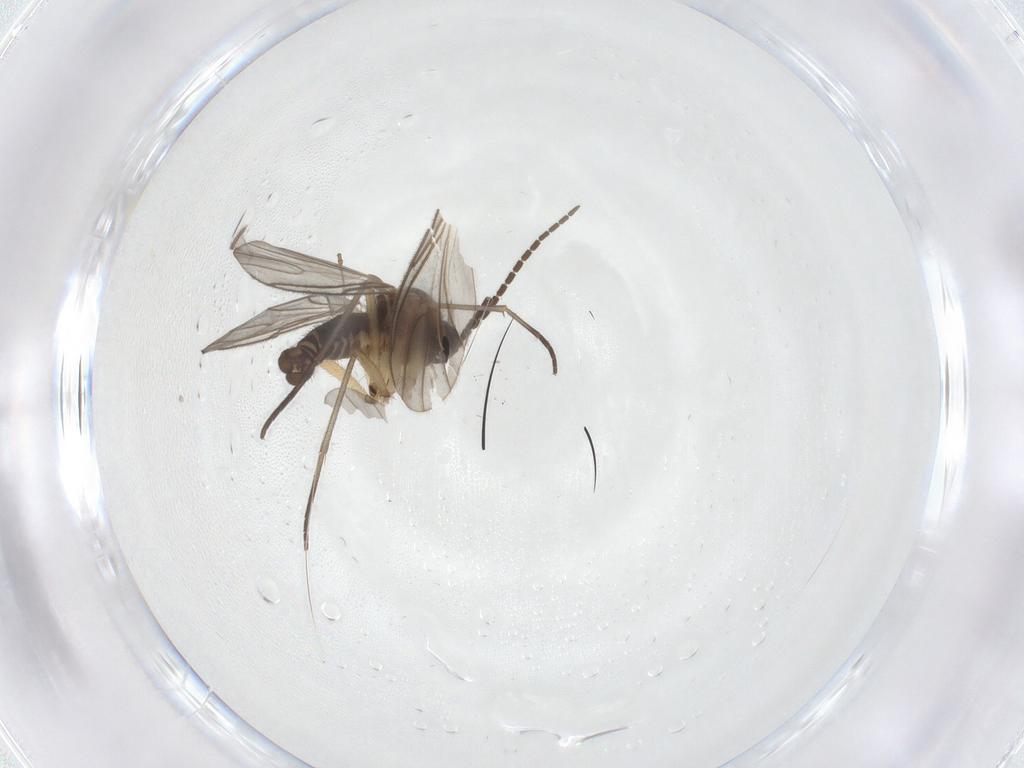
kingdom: Animalia
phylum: Arthropoda
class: Insecta
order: Diptera
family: Sciaridae
